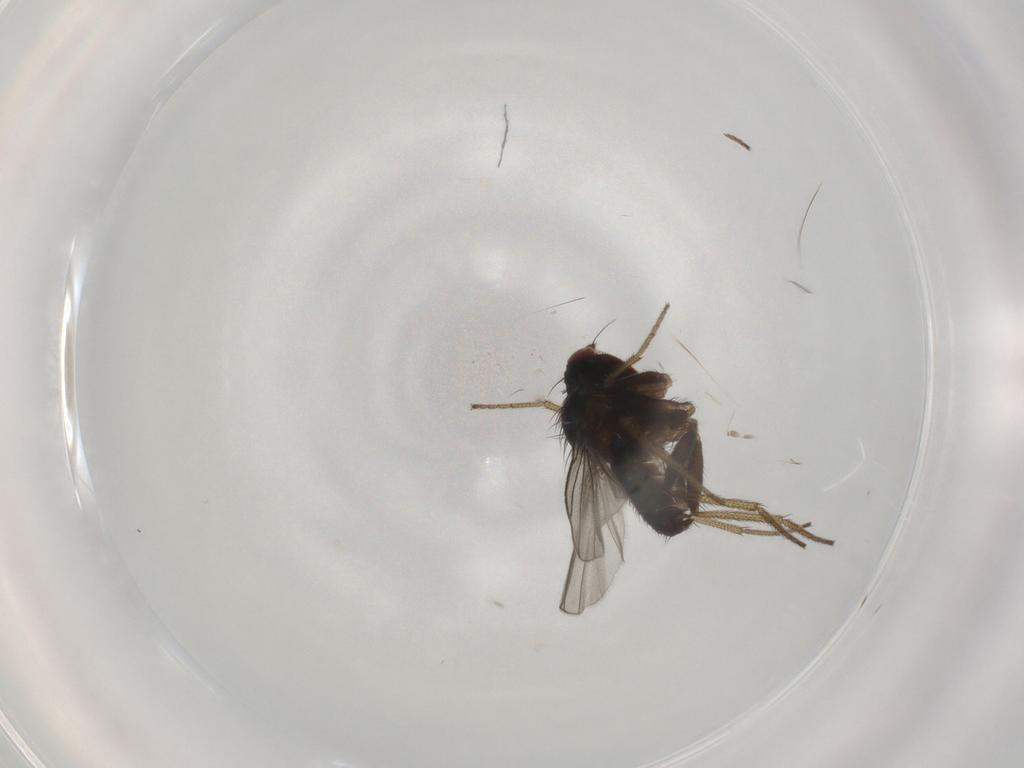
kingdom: Animalia
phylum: Arthropoda
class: Insecta
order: Diptera
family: Dolichopodidae
